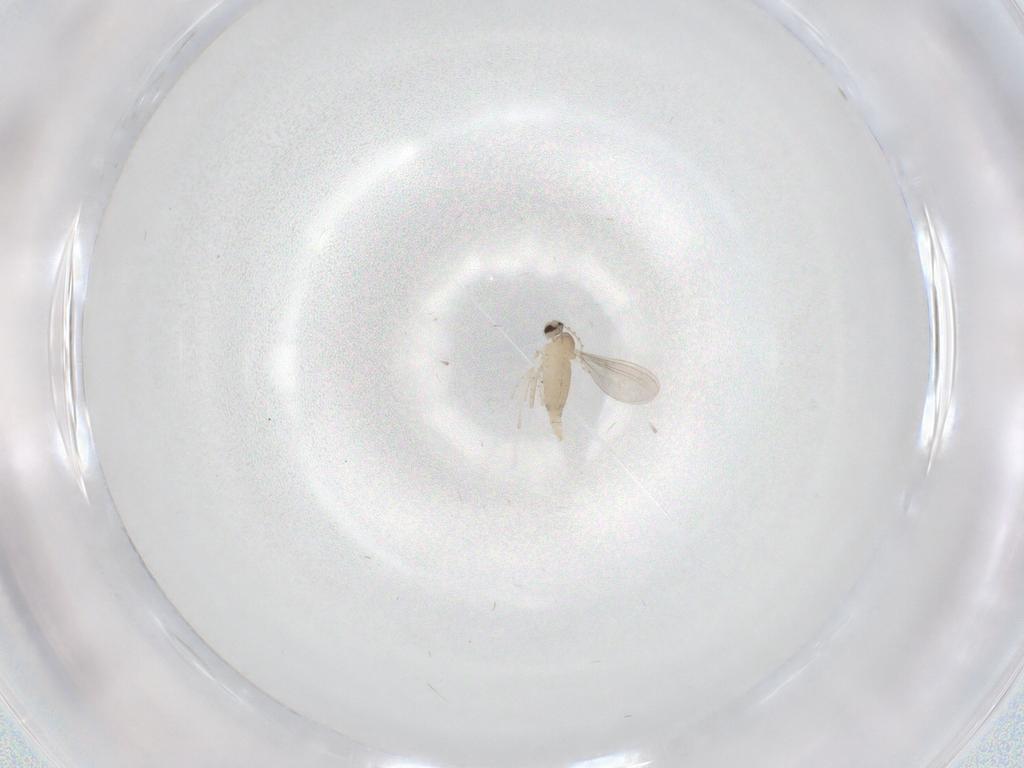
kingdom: Animalia
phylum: Arthropoda
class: Insecta
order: Diptera
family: Cecidomyiidae
